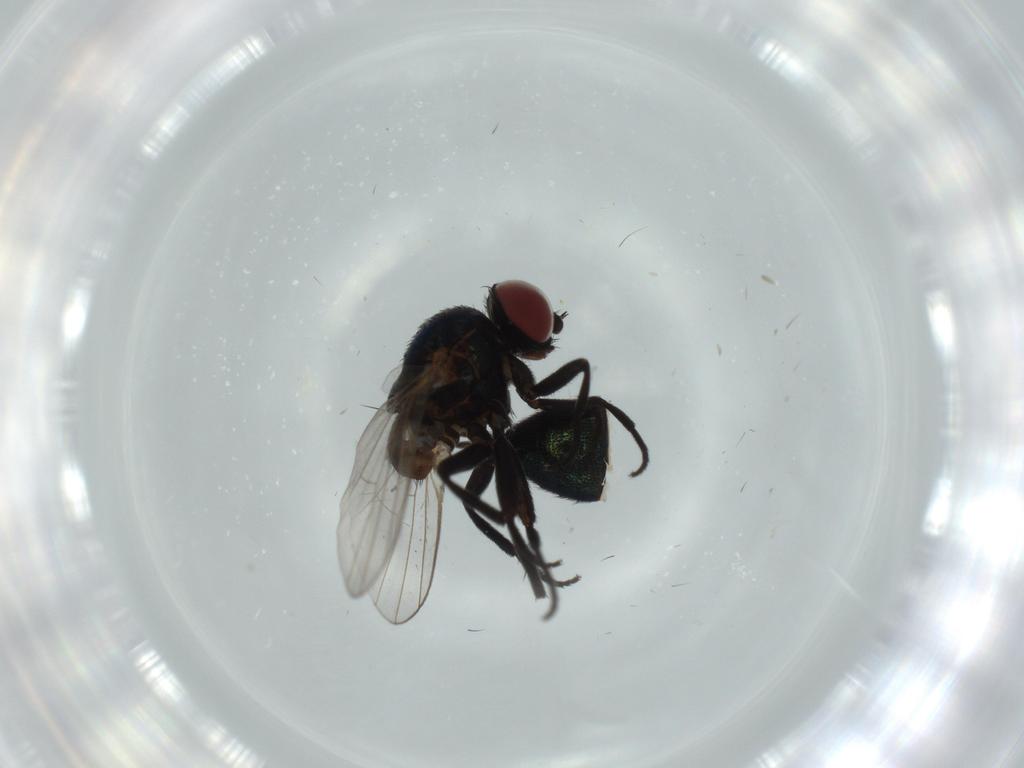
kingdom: Animalia
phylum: Arthropoda
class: Insecta
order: Diptera
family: Agromyzidae
